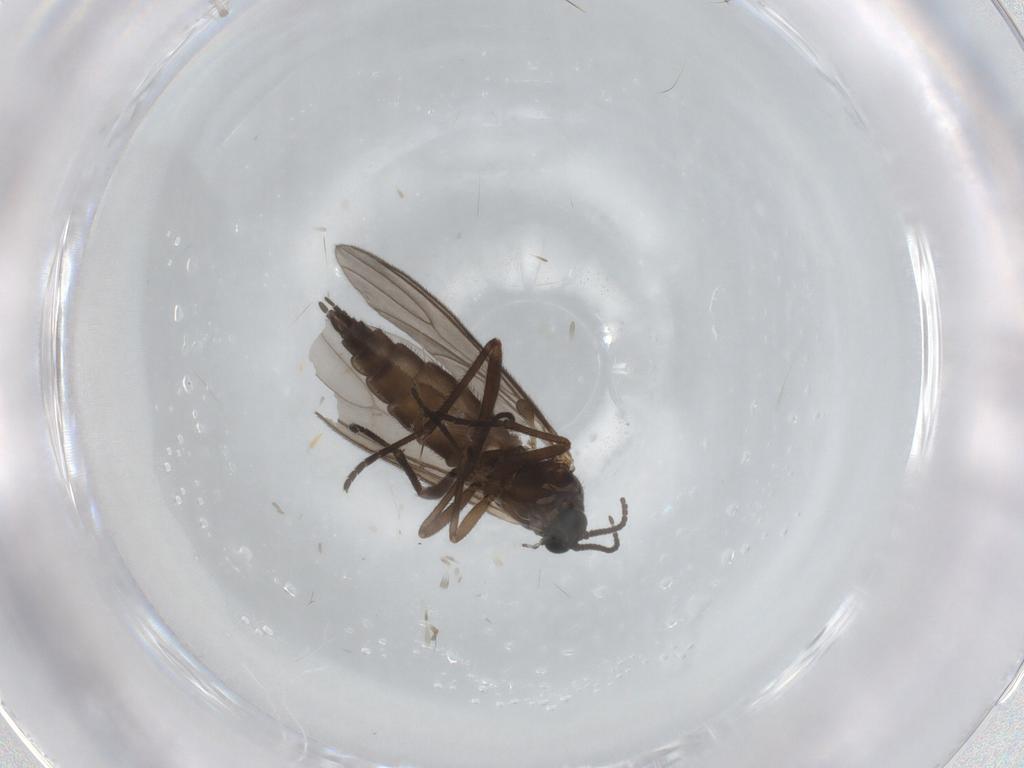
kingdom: Animalia
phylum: Arthropoda
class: Insecta
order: Diptera
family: Sciaridae
